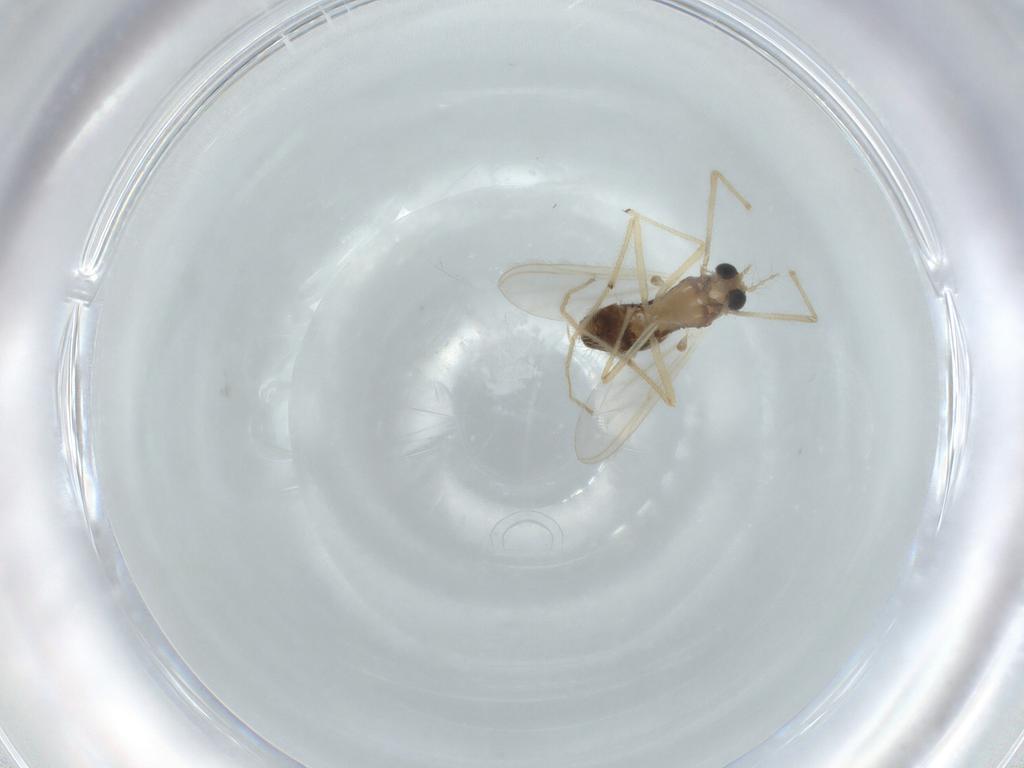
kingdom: Animalia
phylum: Arthropoda
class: Insecta
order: Diptera
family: Chironomidae
